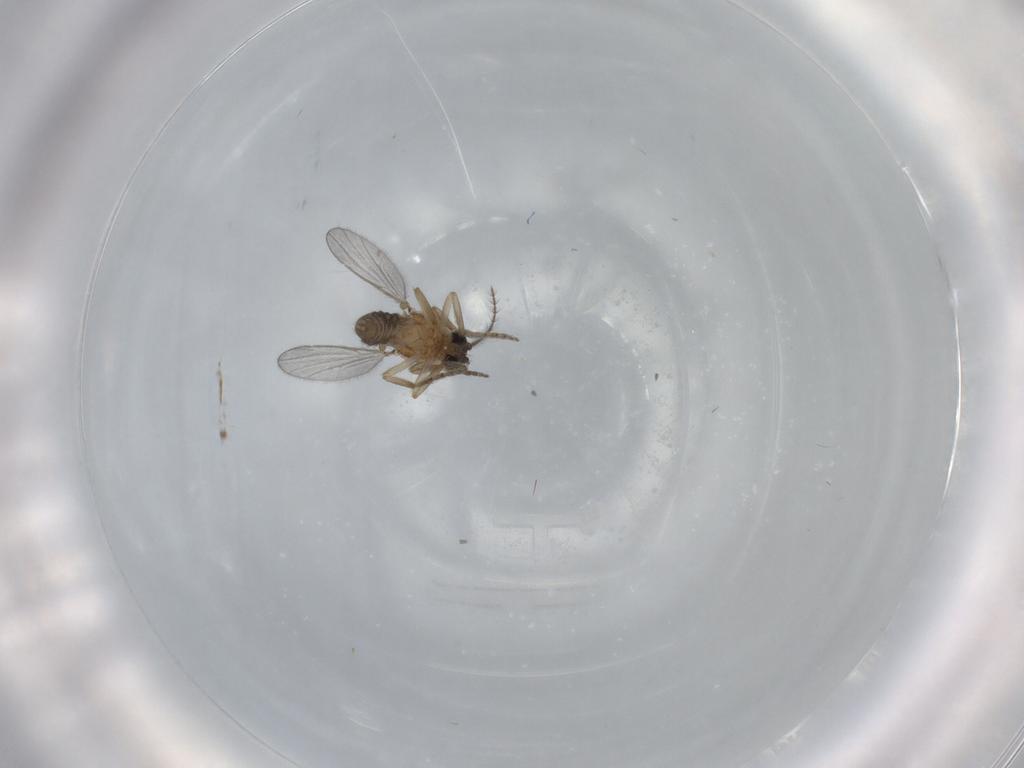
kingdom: Animalia
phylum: Arthropoda
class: Insecta
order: Diptera
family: Ceratopogonidae
